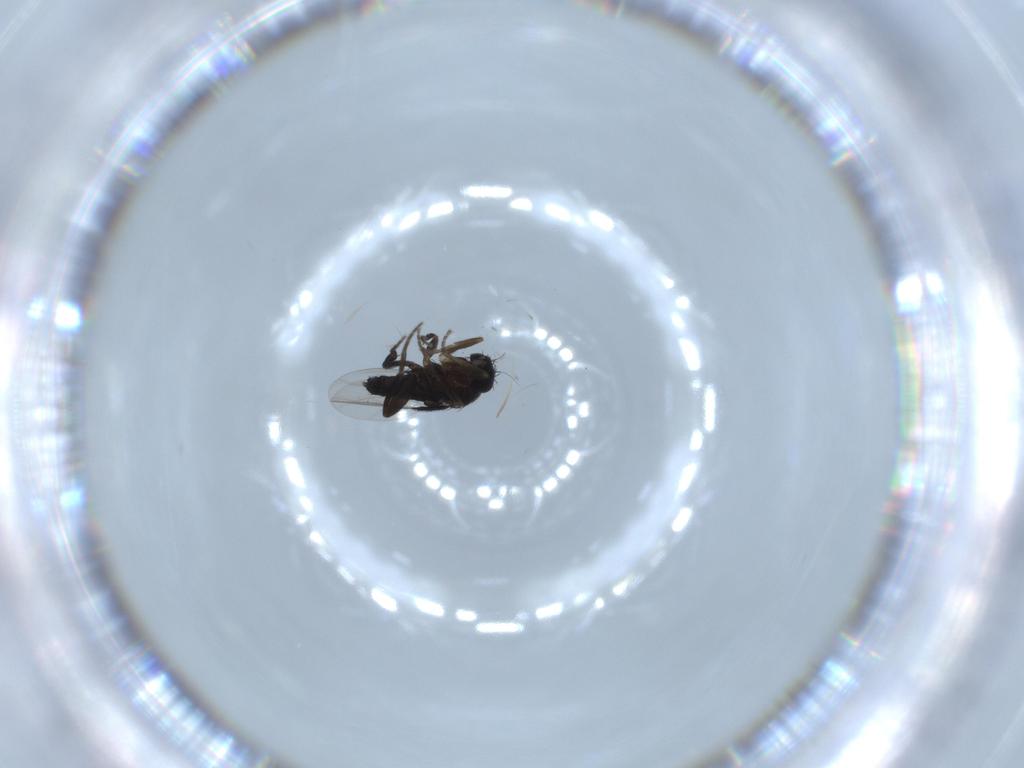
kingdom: Animalia
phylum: Arthropoda
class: Insecta
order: Diptera
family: Phoridae
